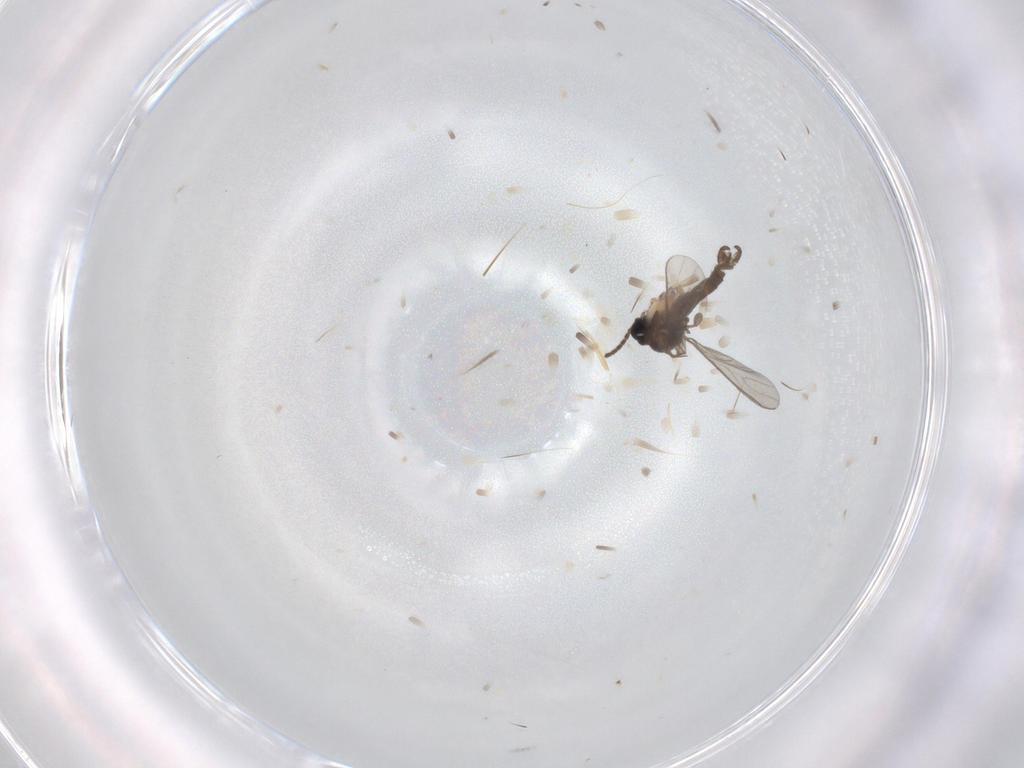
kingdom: Animalia
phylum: Arthropoda
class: Insecta
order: Diptera
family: Sciaridae
